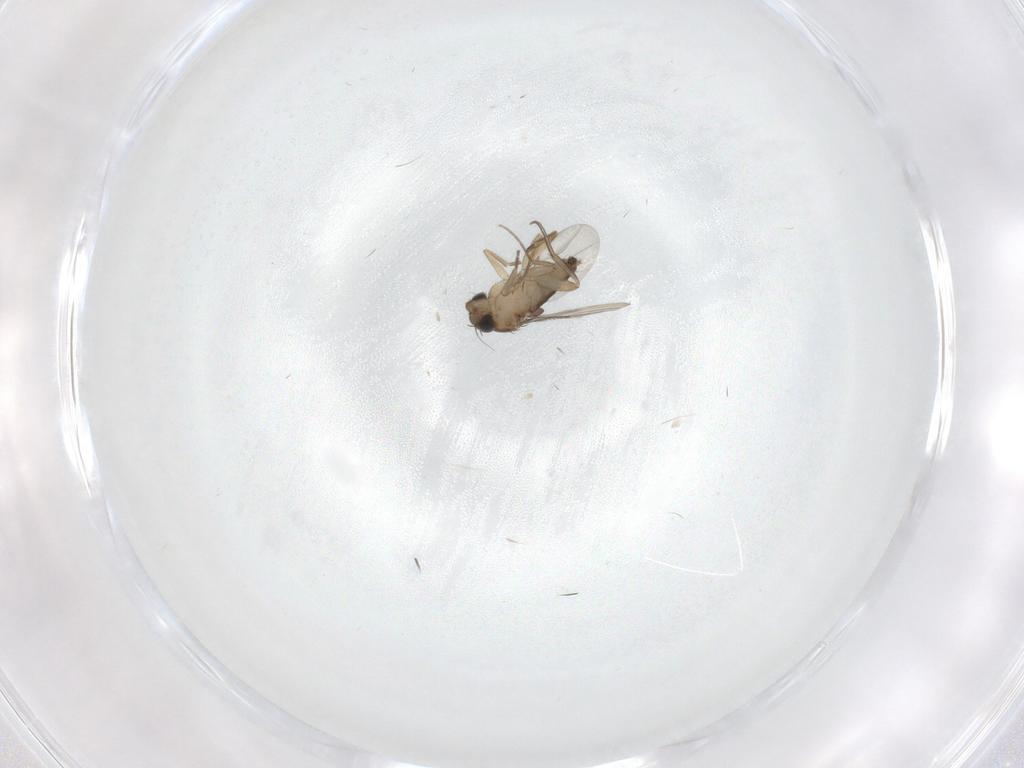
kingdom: Animalia
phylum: Arthropoda
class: Insecta
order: Diptera
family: Phoridae
